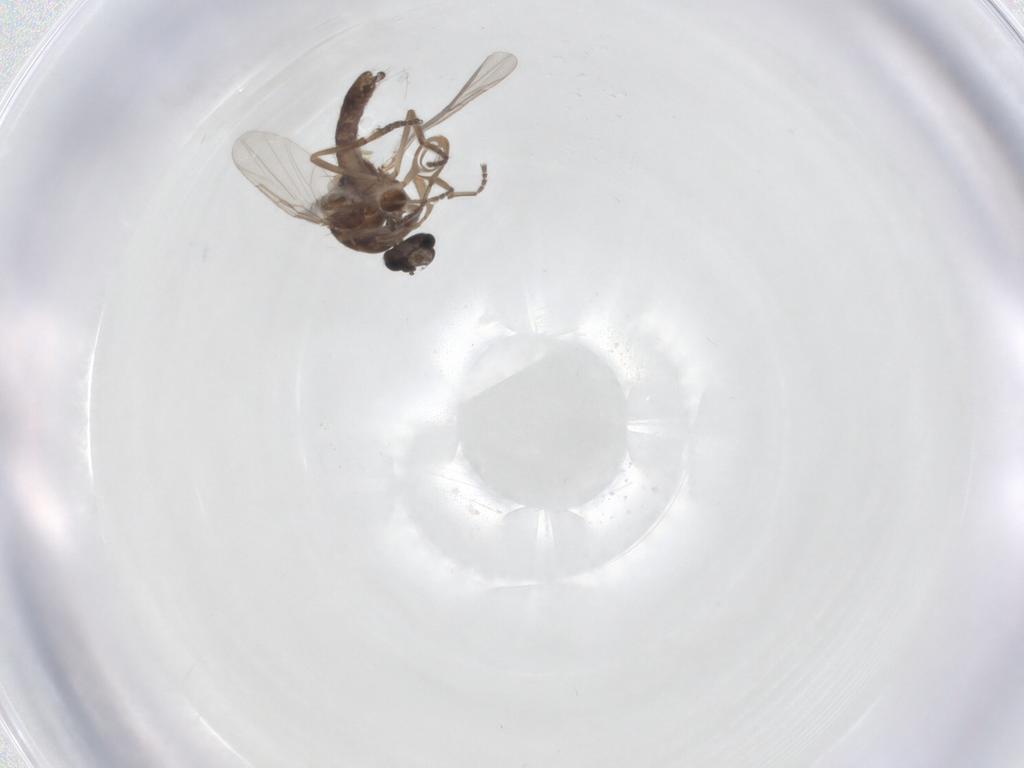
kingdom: Animalia
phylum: Arthropoda
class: Insecta
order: Diptera
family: Ceratopogonidae
